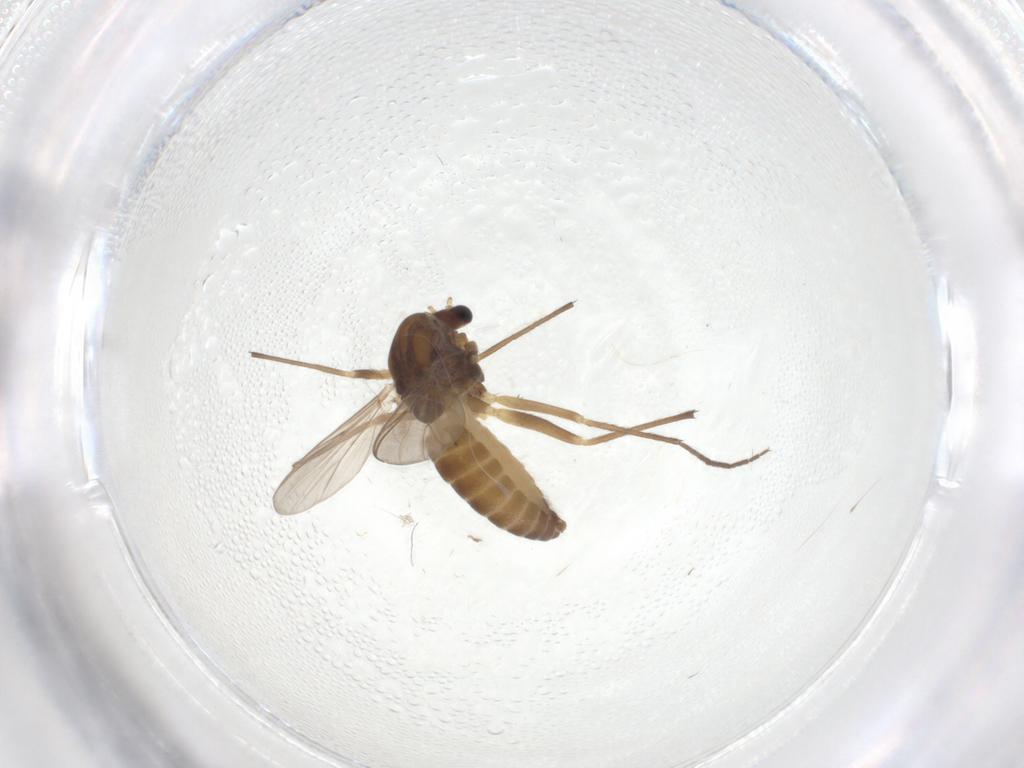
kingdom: Animalia
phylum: Arthropoda
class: Insecta
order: Diptera
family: Chironomidae
